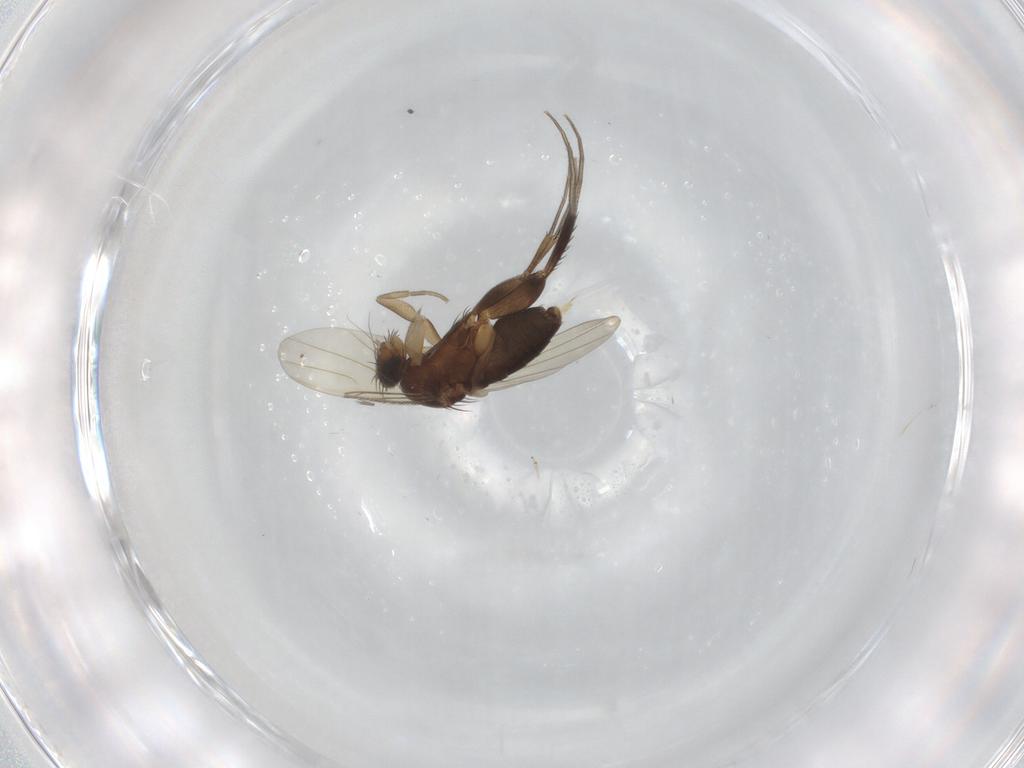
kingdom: Animalia
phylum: Arthropoda
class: Insecta
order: Diptera
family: Phoridae
